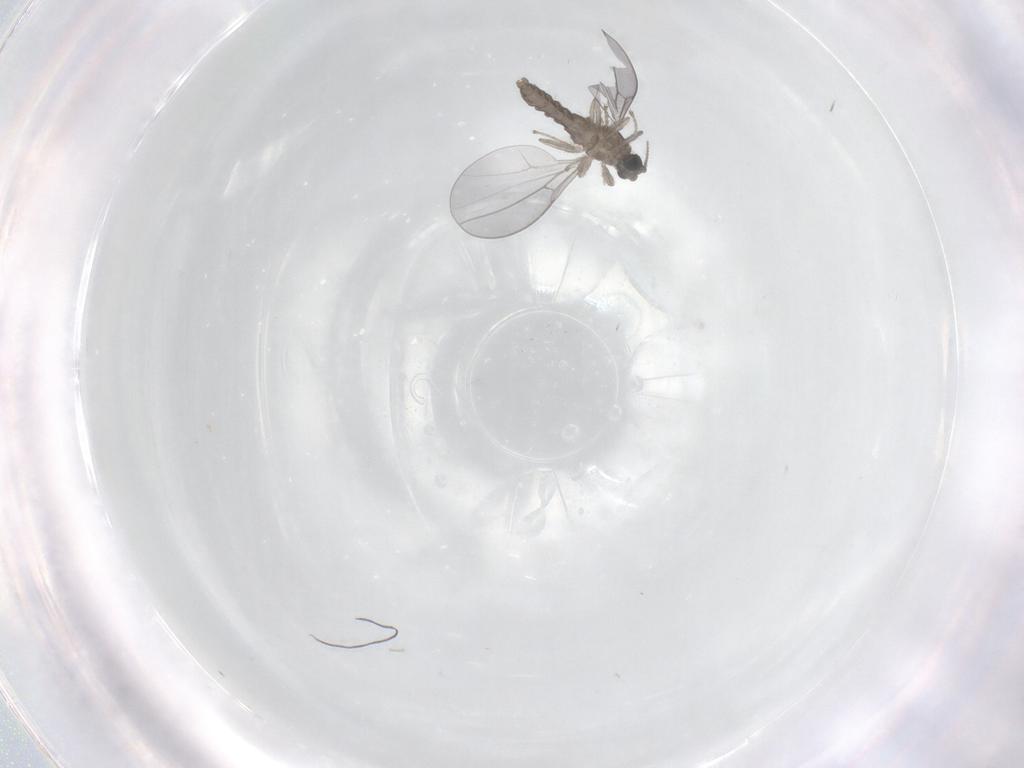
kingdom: Animalia
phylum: Arthropoda
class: Insecta
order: Diptera
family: Cecidomyiidae
